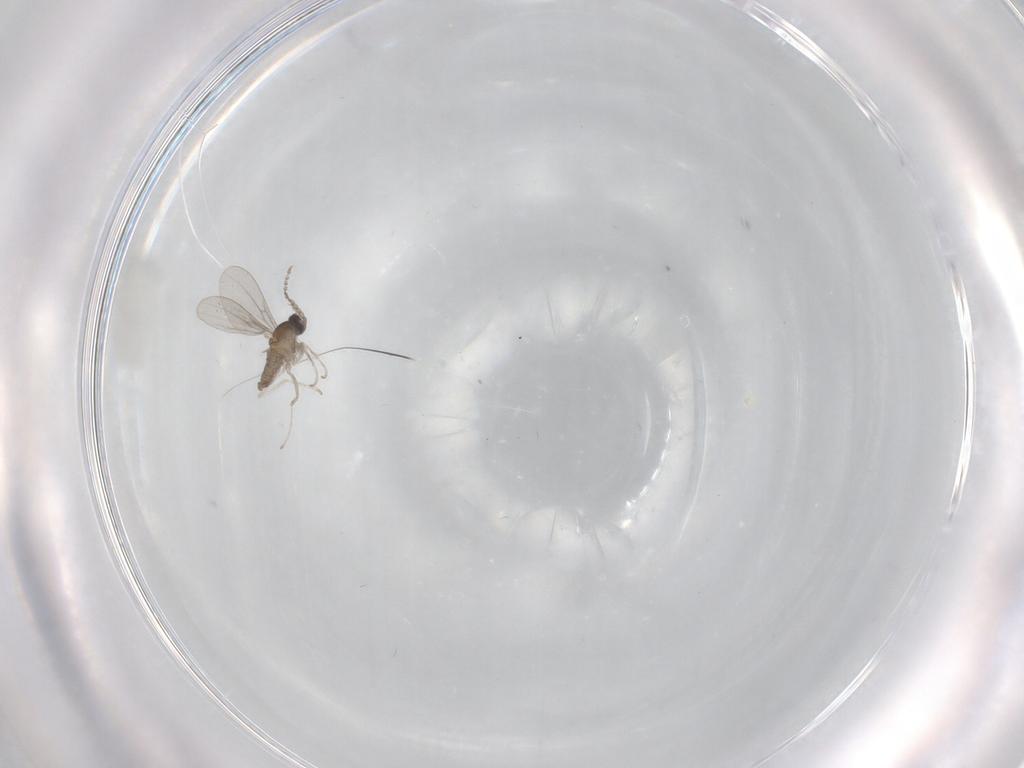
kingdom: Animalia
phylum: Arthropoda
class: Insecta
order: Diptera
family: Cecidomyiidae
